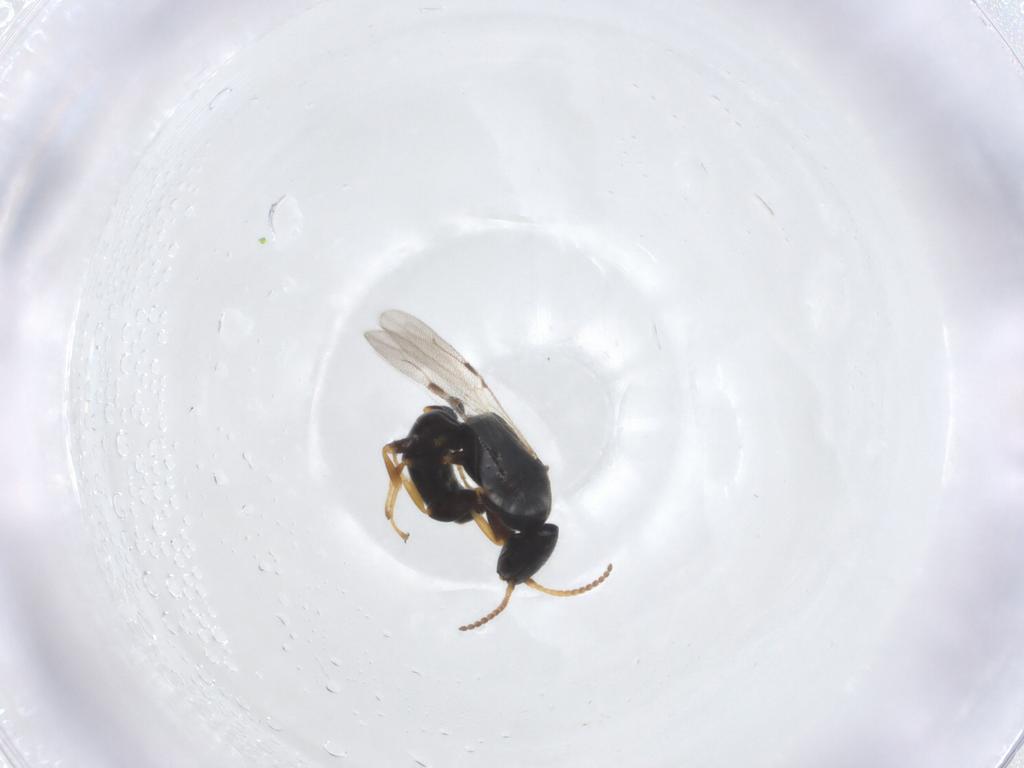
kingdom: Animalia
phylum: Arthropoda
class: Insecta
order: Hymenoptera
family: Bethylidae
